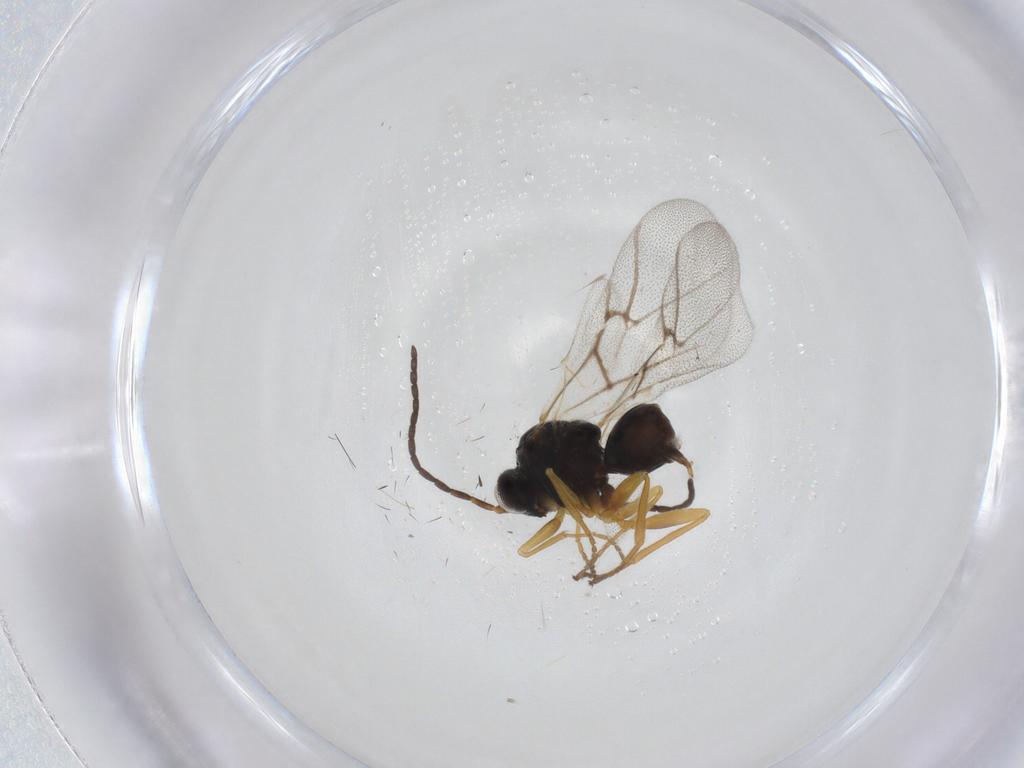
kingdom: Animalia
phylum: Arthropoda
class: Insecta
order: Hymenoptera
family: Cynipidae
